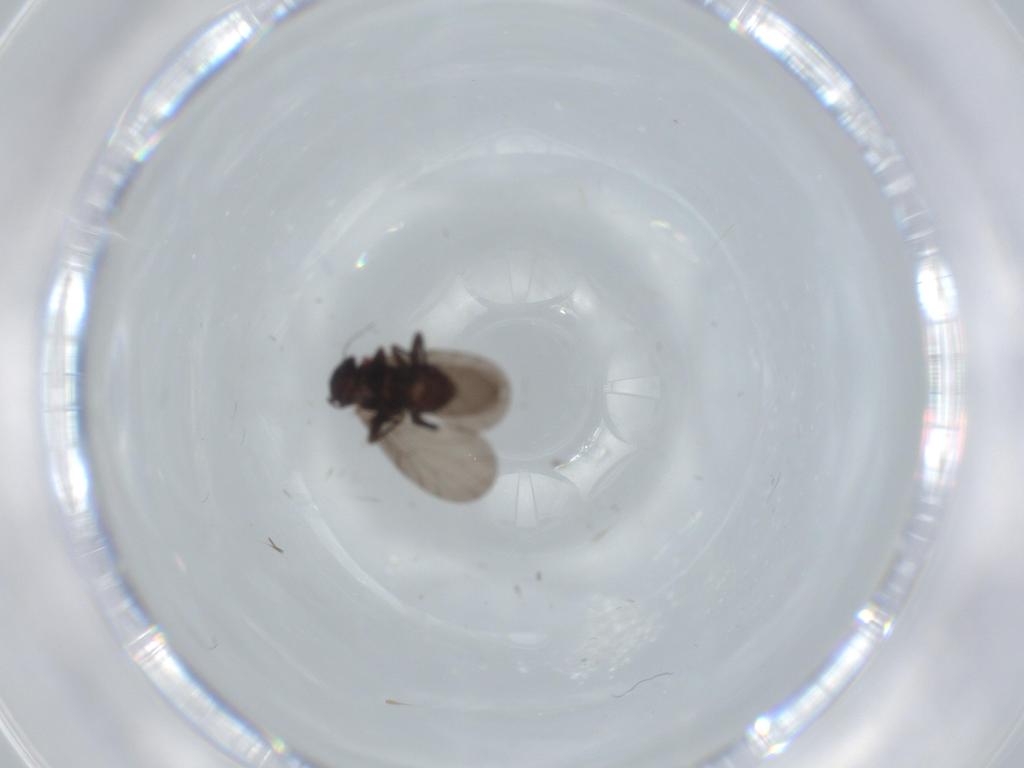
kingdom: Animalia
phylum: Arthropoda
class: Insecta
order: Psocodea
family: Lepidopsocidae
